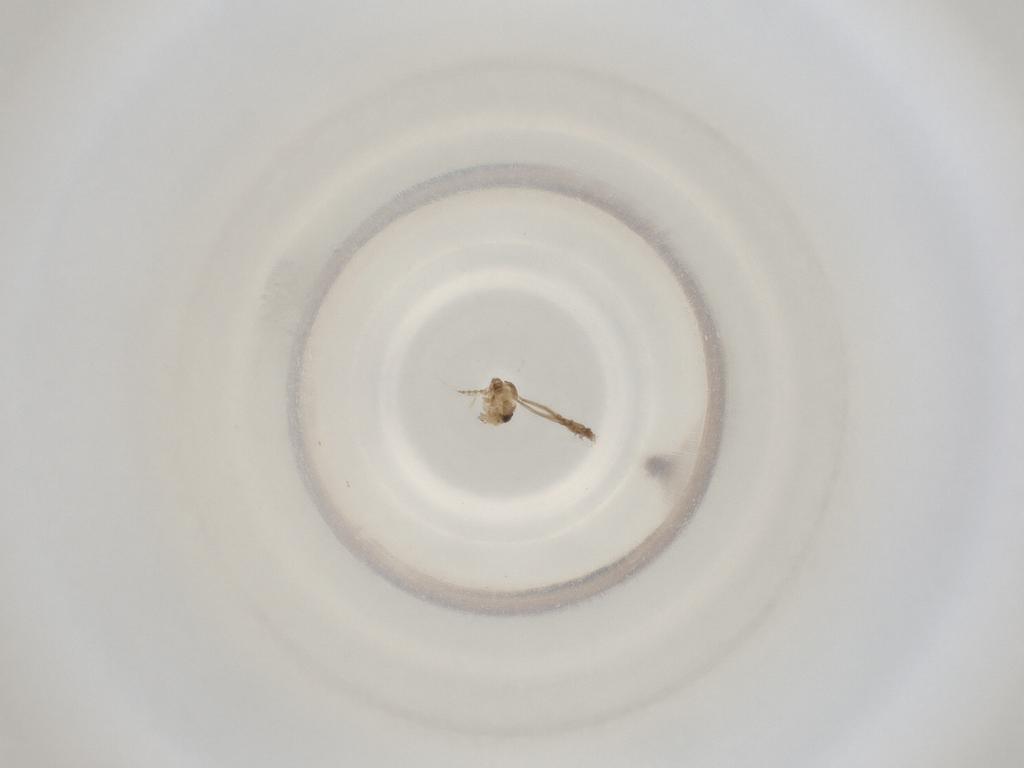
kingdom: Animalia
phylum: Arthropoda
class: Insecta
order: Diptera
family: Cecidomyiidae
